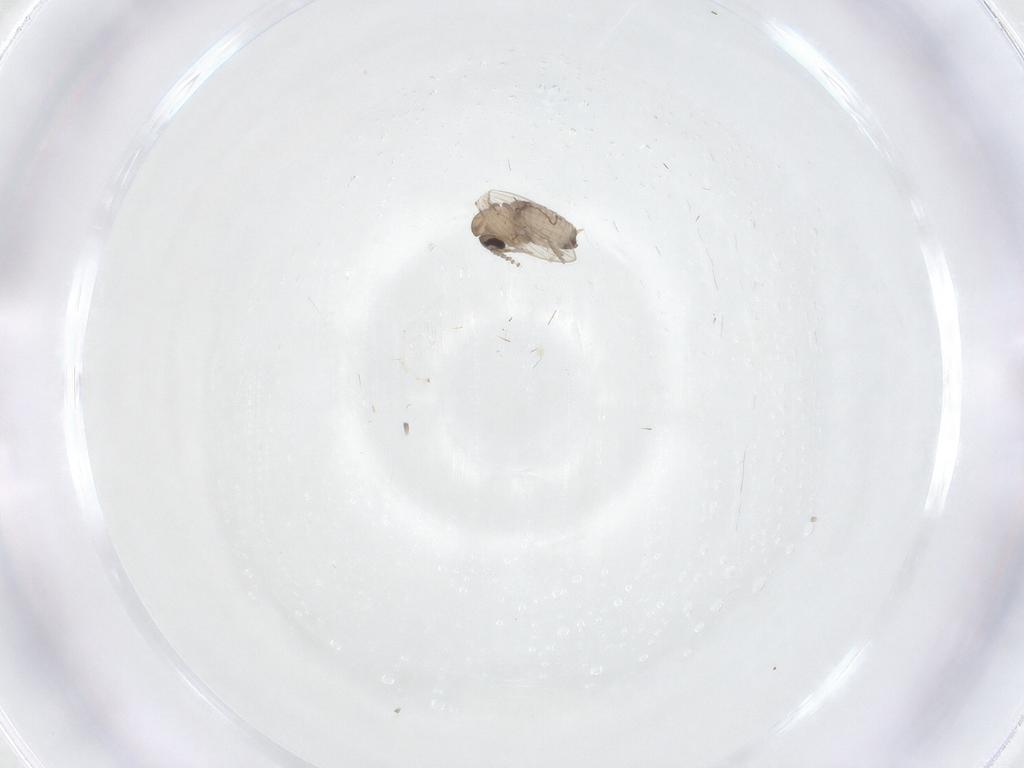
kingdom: Animalia
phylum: Arthropoda
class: Insecta
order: Diptera
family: Psychodidae
